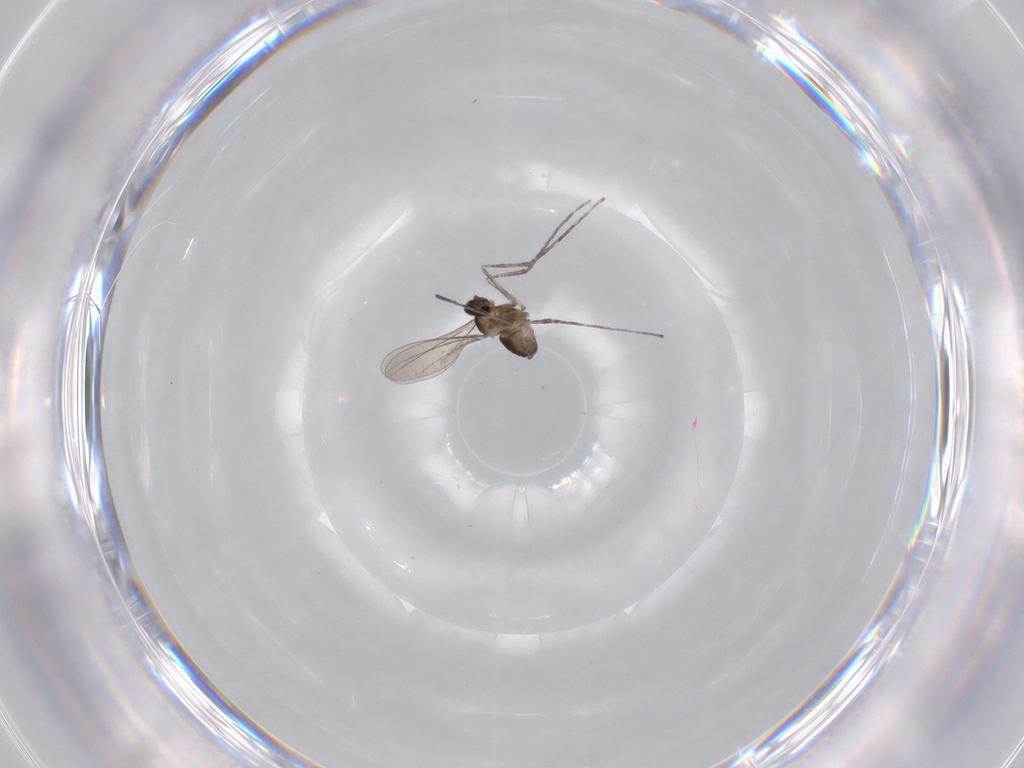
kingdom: Animalia
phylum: Arthropoda
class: Insecta
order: Diptera
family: Cecidomyiidae
